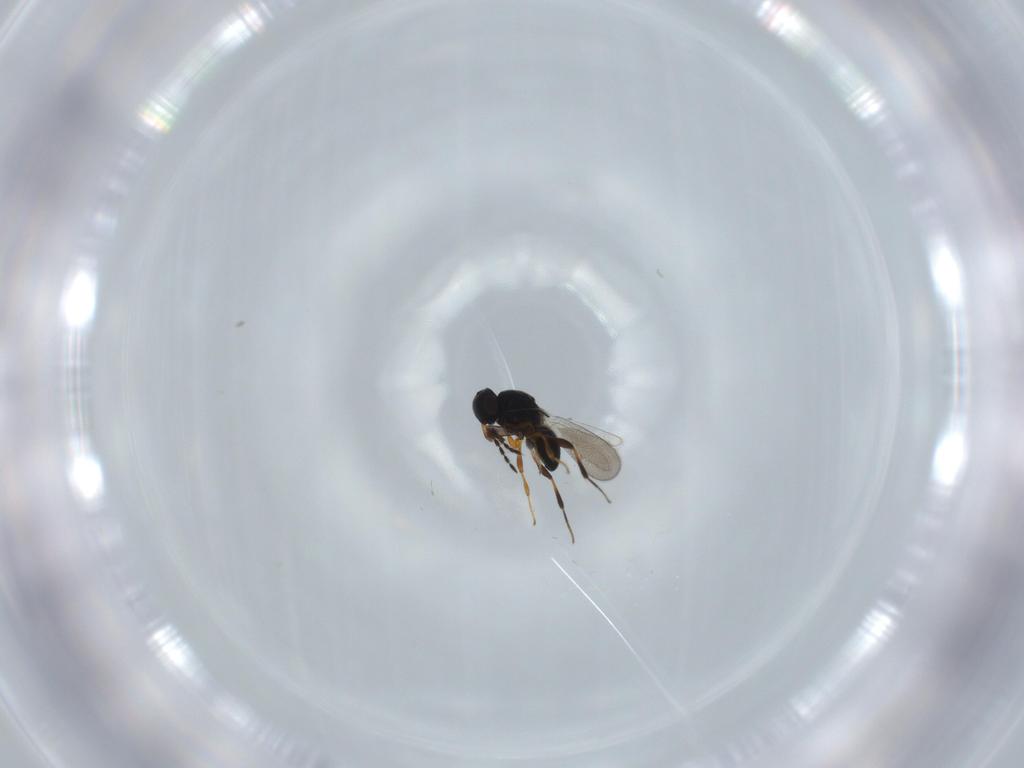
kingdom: Animalia
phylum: Arthropoda
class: Insecta
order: Hymenoptera
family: Platygastridae
